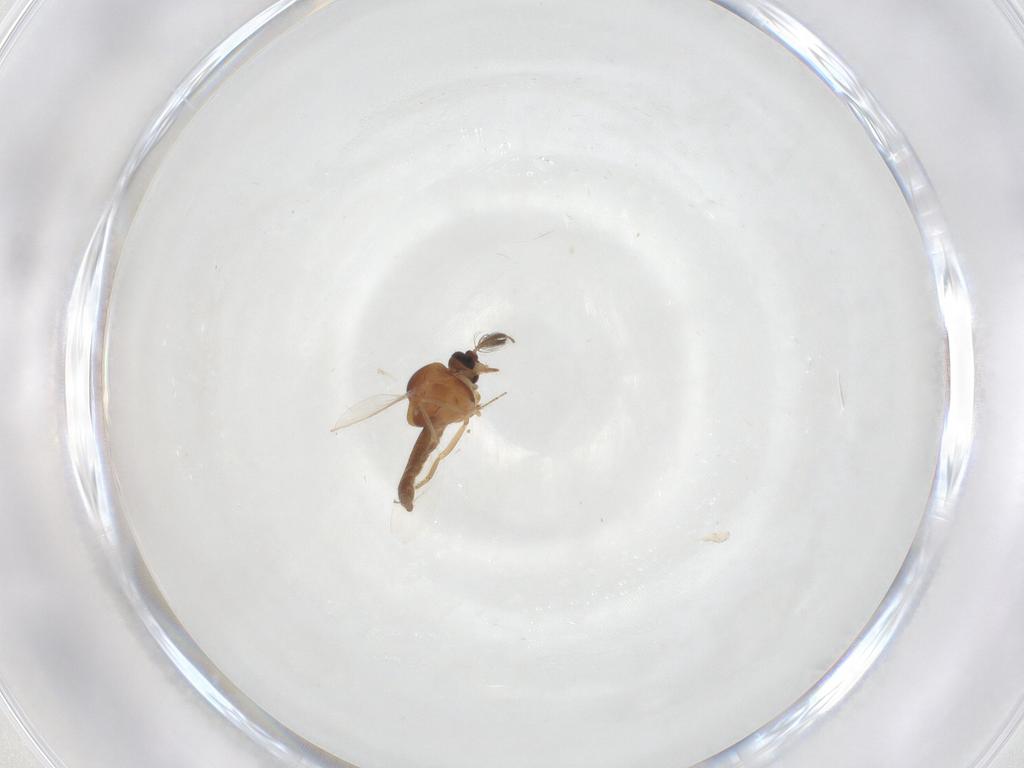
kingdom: Animalia
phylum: Arthropoda
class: Insecta
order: Diptera
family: Ceratopogonidae
